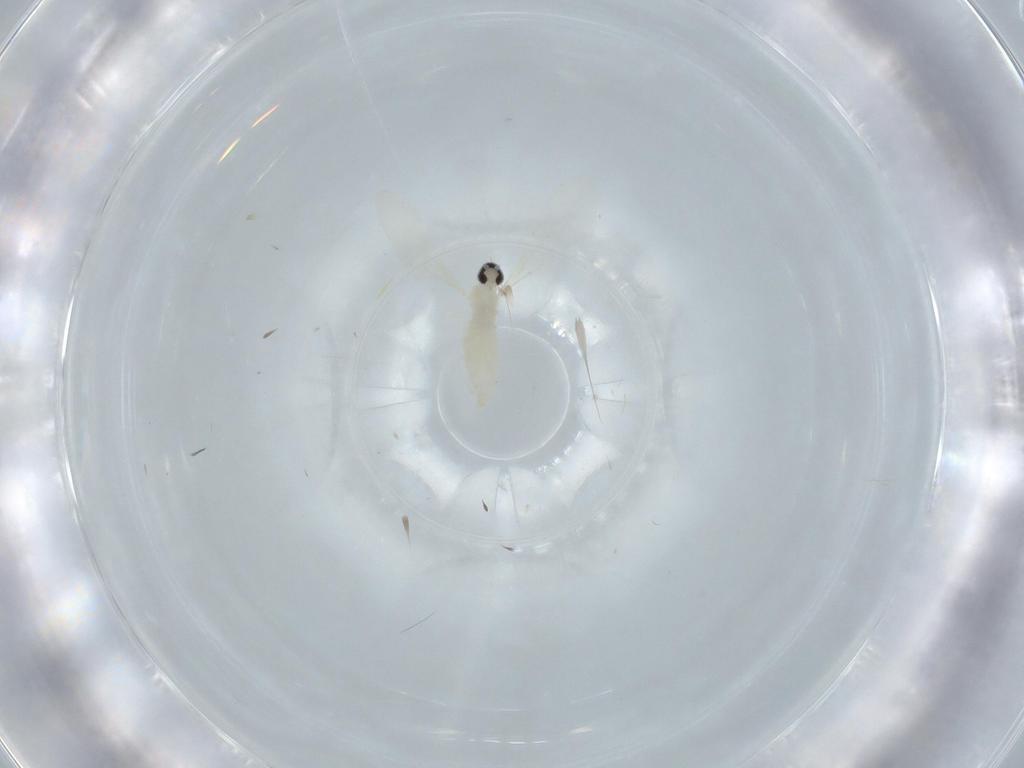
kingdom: Animalia
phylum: Arthropoda
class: Insecta
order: Diptera
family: Cecidomyiidae
